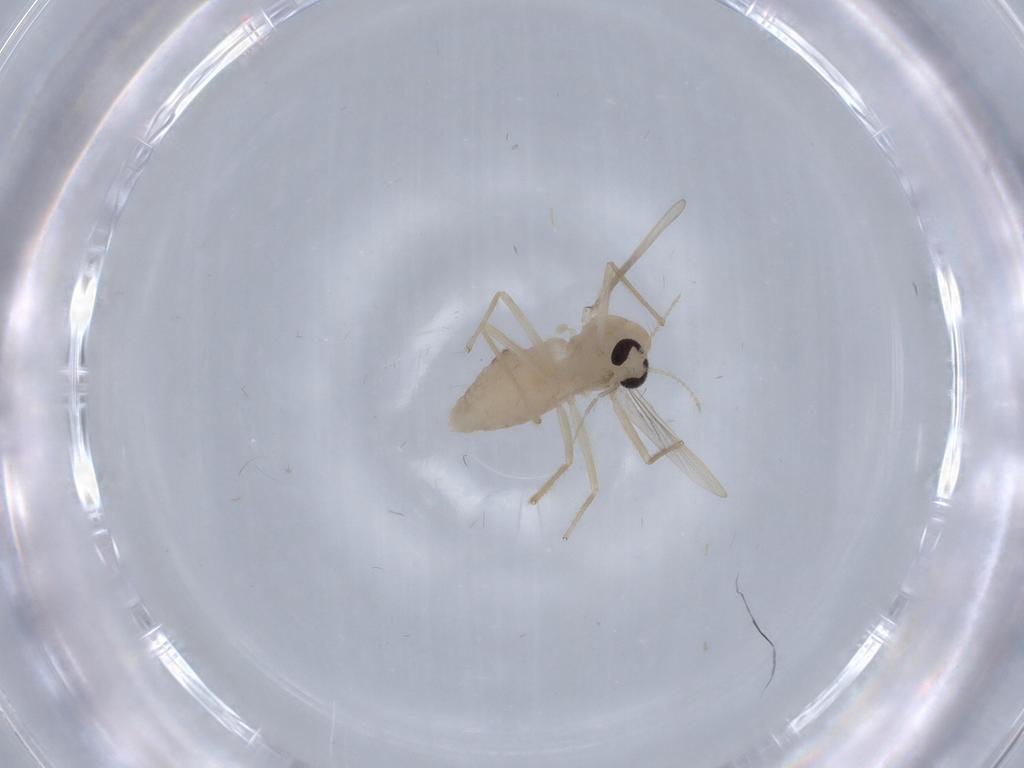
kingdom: Animalia
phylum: Arthropoda
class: Insecta
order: Diptera
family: Chironomidae
